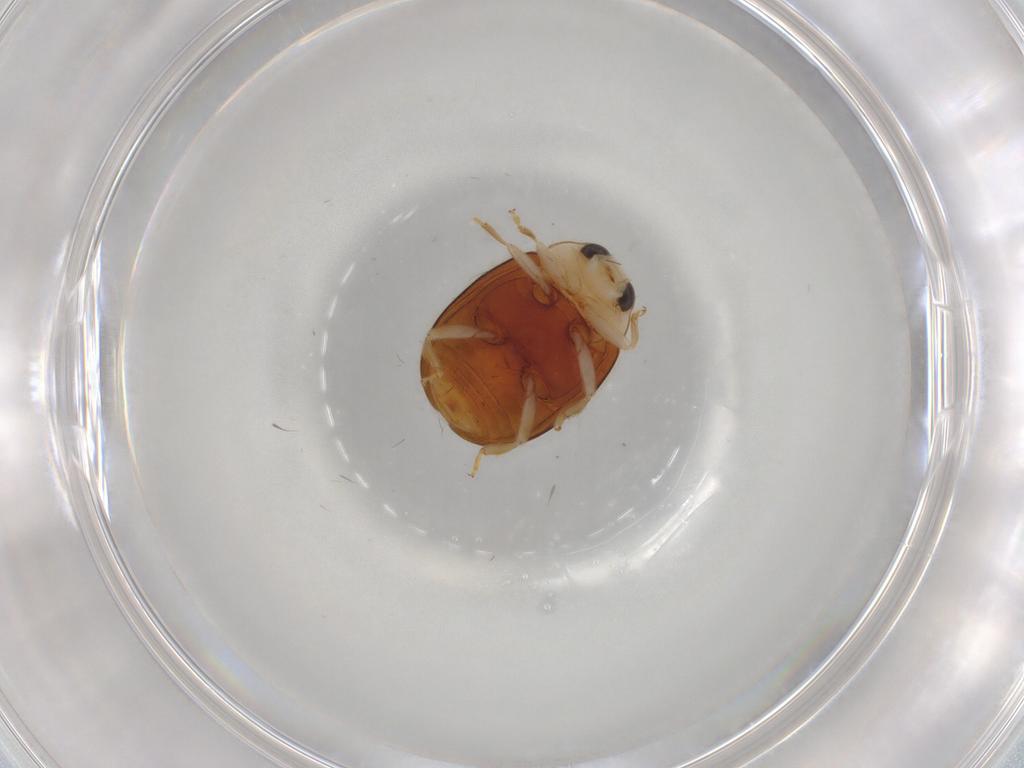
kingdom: Animalia
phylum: Arthropoda
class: Insecta
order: Coleoptera
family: Coccinellidae
